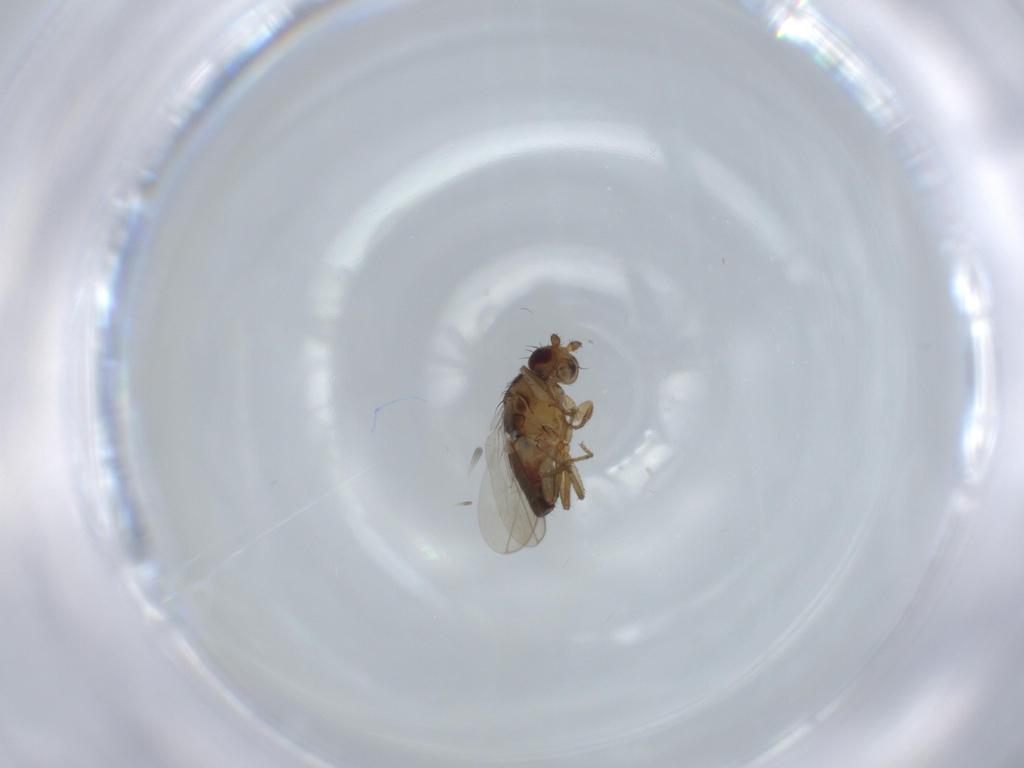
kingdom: Animalia
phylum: Arthropoda
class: Insecta
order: Diptera
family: Sphaeroceridae
